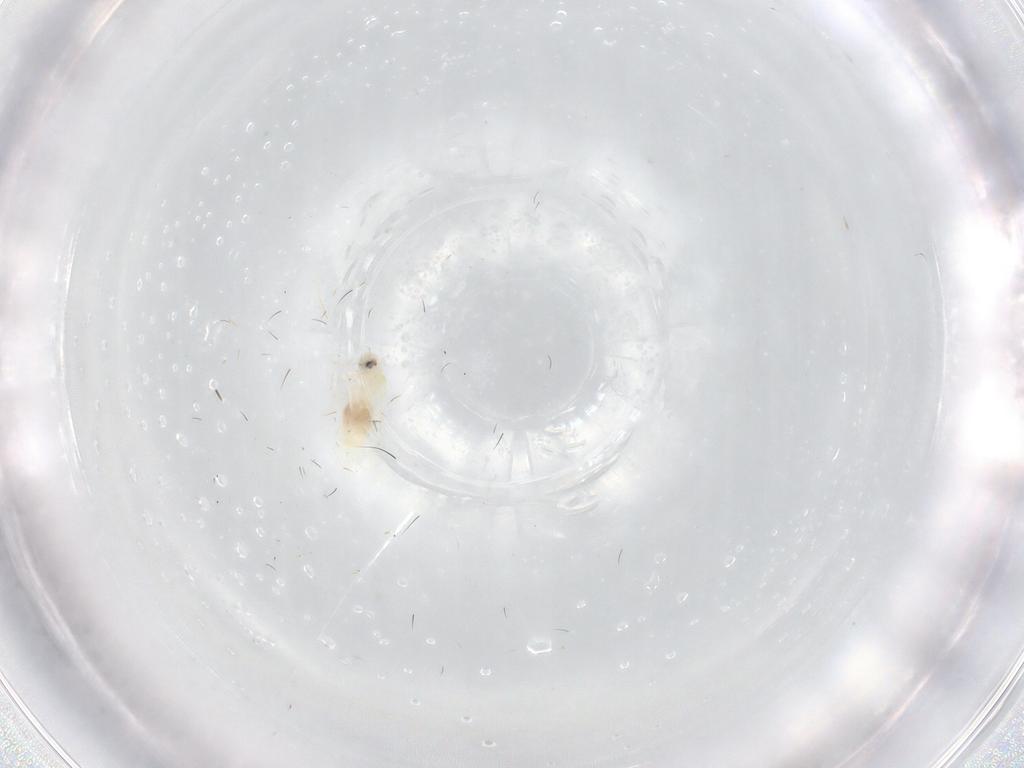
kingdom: Animalia
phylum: Arthropoda
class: Insecta
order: Hemiptera
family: Aleyrodidae
